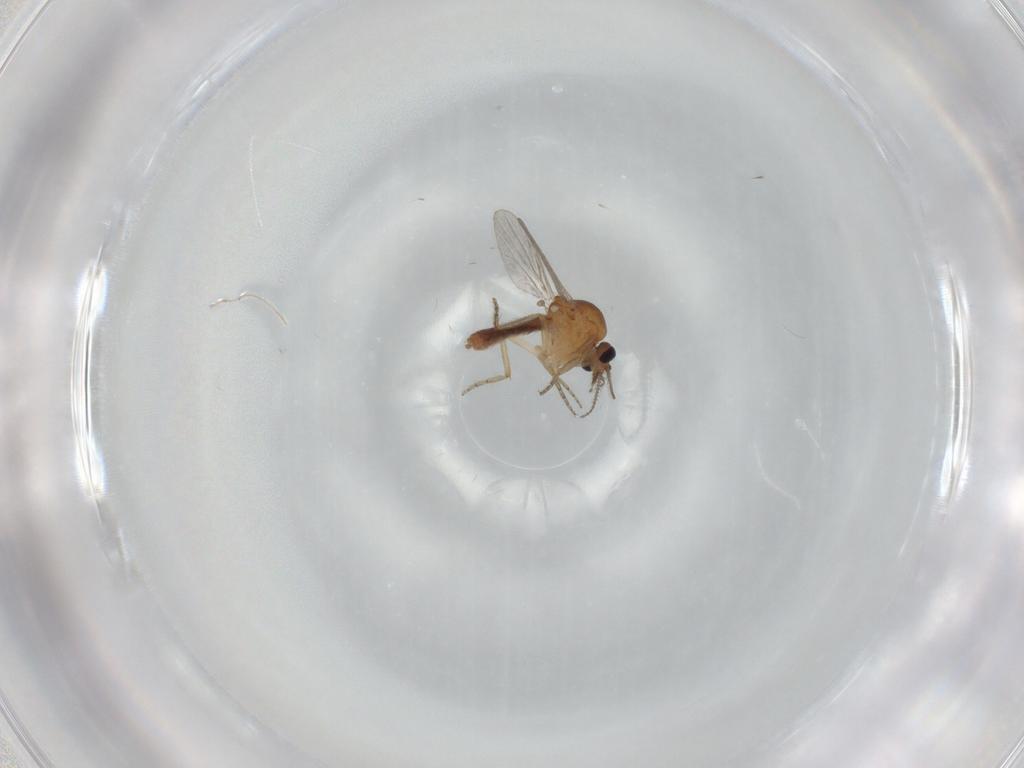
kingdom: Animalia
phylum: Arthropoda
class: Insecta
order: Diptera
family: Ceratopogonidae
